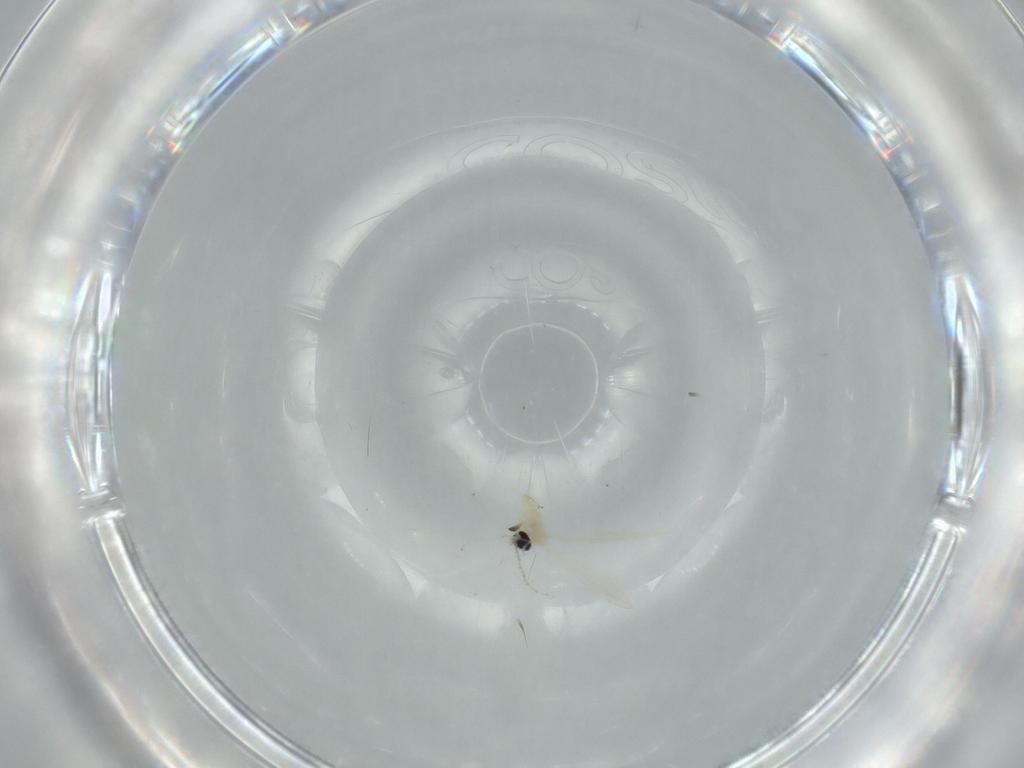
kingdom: Animalia
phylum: Arthropoda
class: Insecta
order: Diptera
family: Cecidomyiidae
